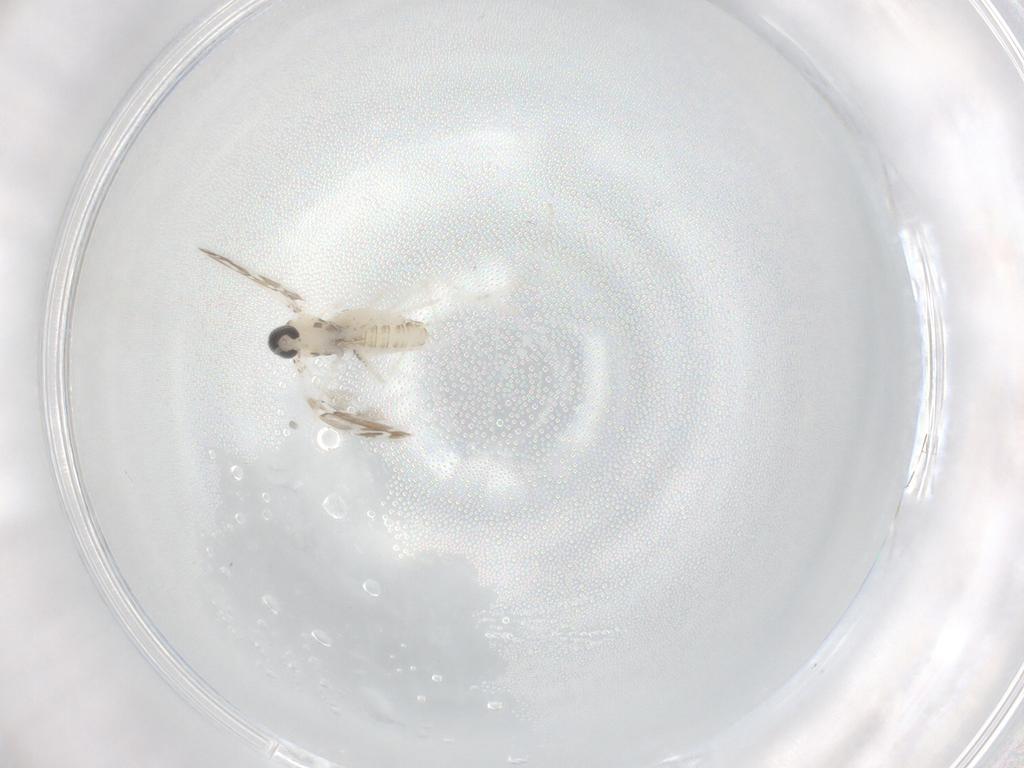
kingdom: Animalia
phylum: Arthropoda
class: Insecta
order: Diptera
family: Cecidomyiidae
